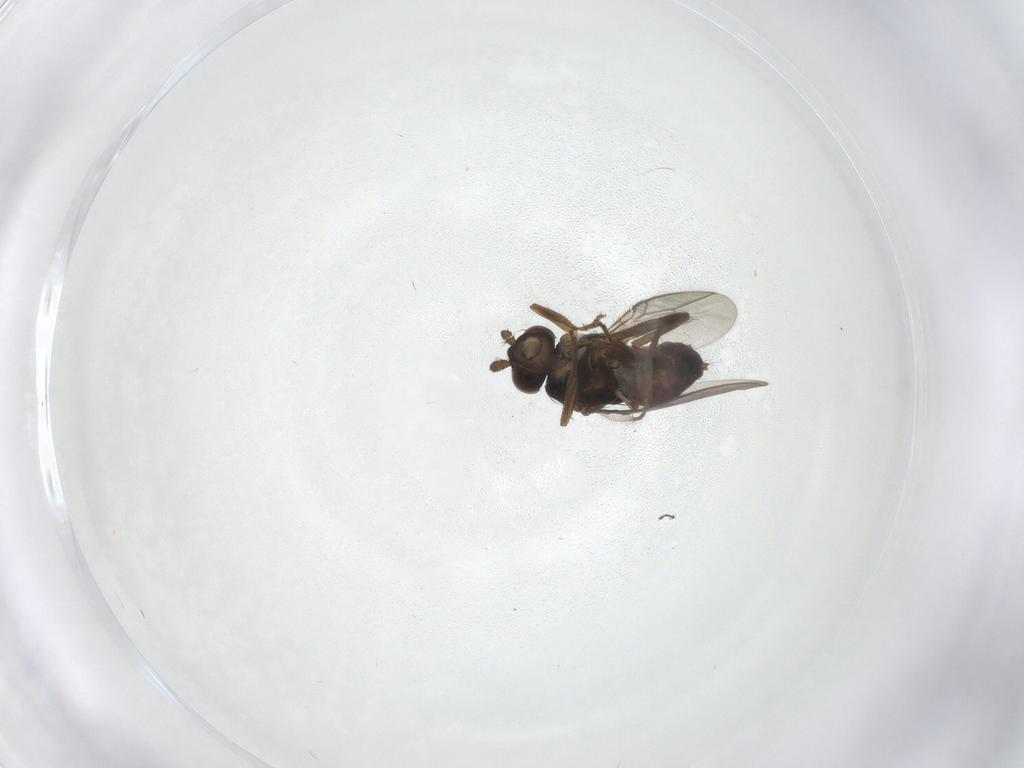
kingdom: Animalia
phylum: Arthropoda
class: Insecta
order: Diptera
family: Sphaeroceridae
